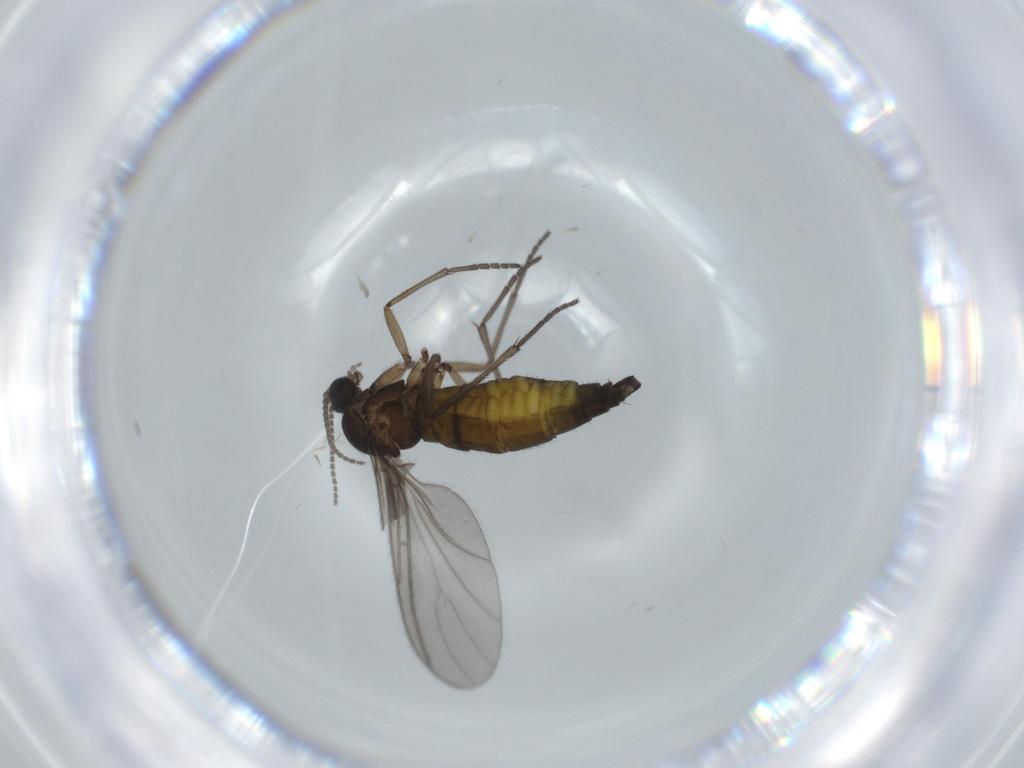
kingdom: Animalia
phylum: Arthropoda
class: Insecta
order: Diptera
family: Sciaridae
